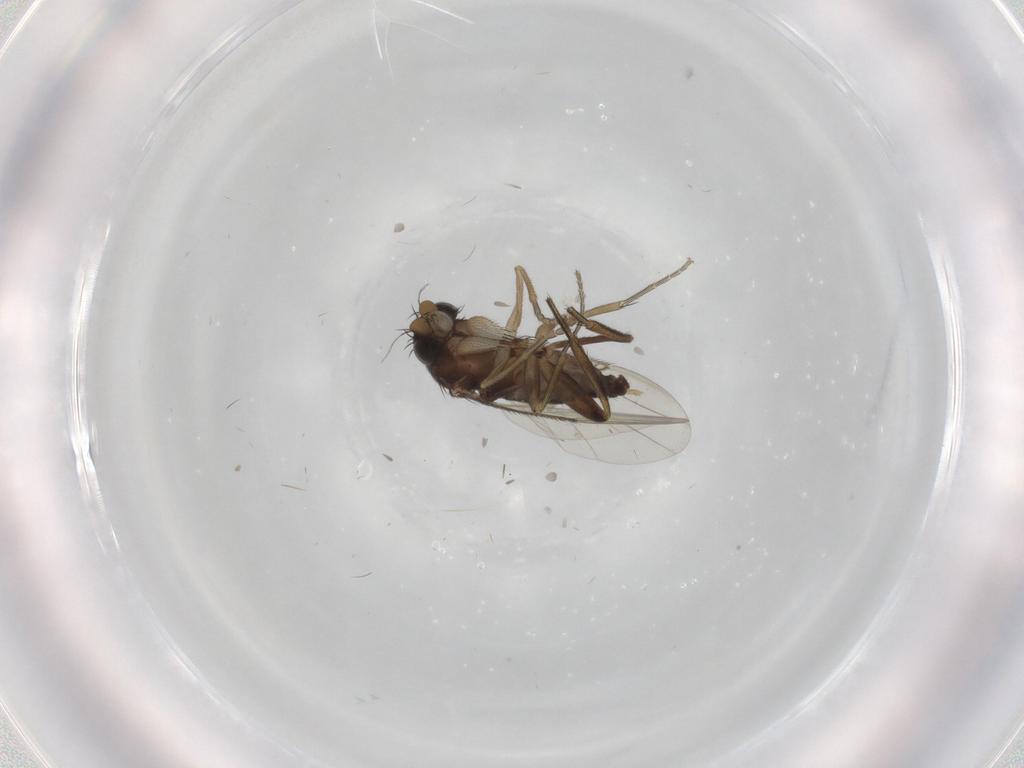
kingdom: Animalia
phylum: Arthropoda
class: Insecta
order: Diptera
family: Phoridae
